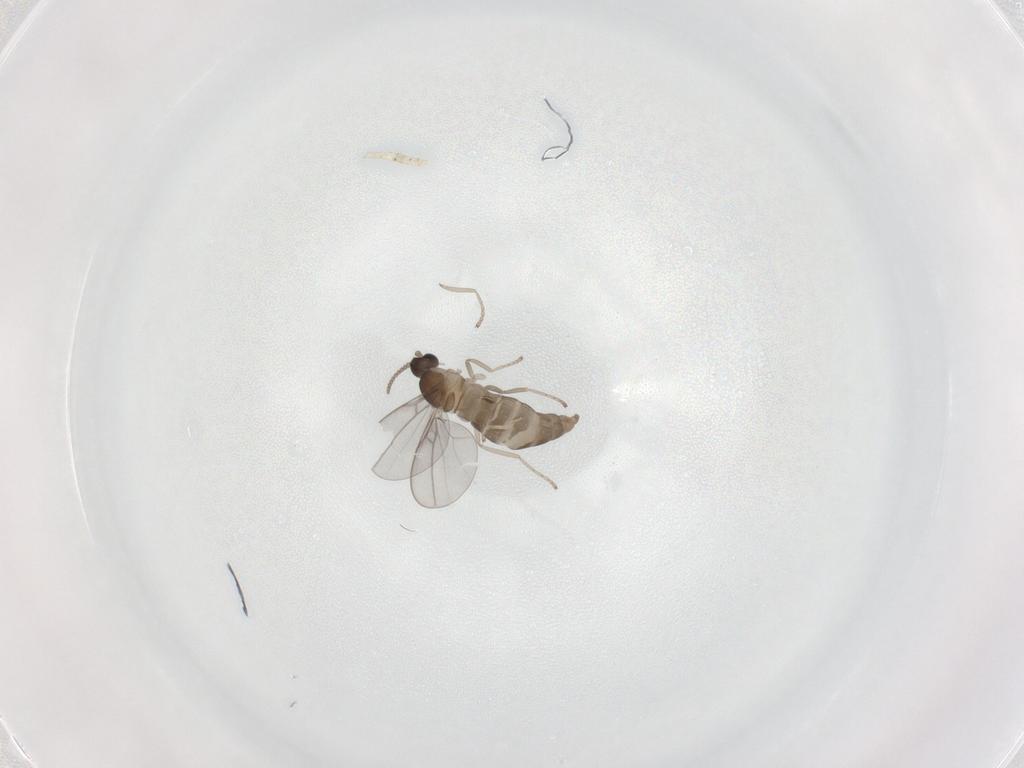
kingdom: Animalia
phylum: Arthropoda
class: Insecta
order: Diptera
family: Cecidomyiidae
